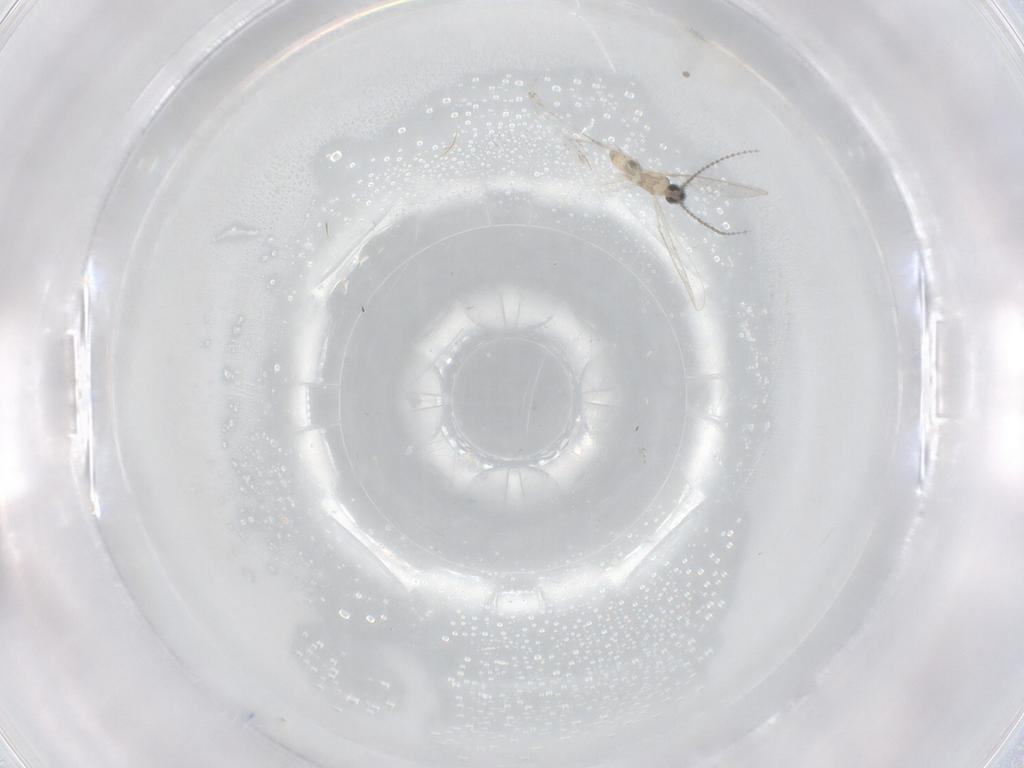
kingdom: Animalia
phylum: Arthropoda
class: Insecta
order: Diptera
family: Cecidomyiidae
